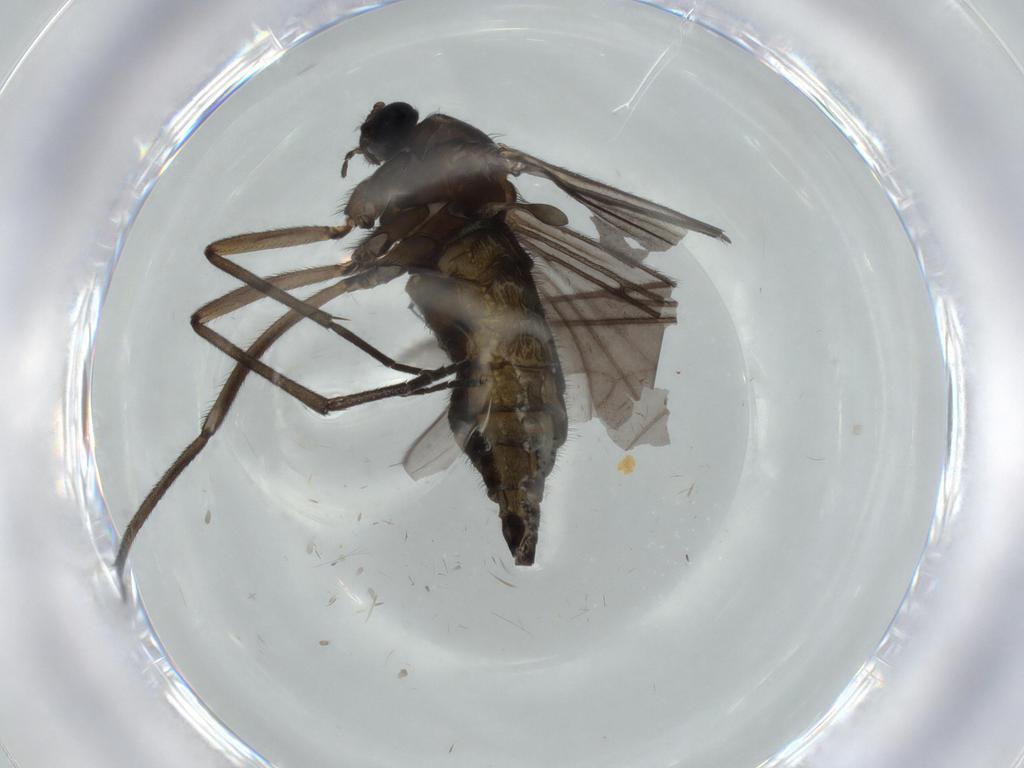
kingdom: Animalia
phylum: Arthropoda
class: Insecta
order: Diptera
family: Sciaridae
